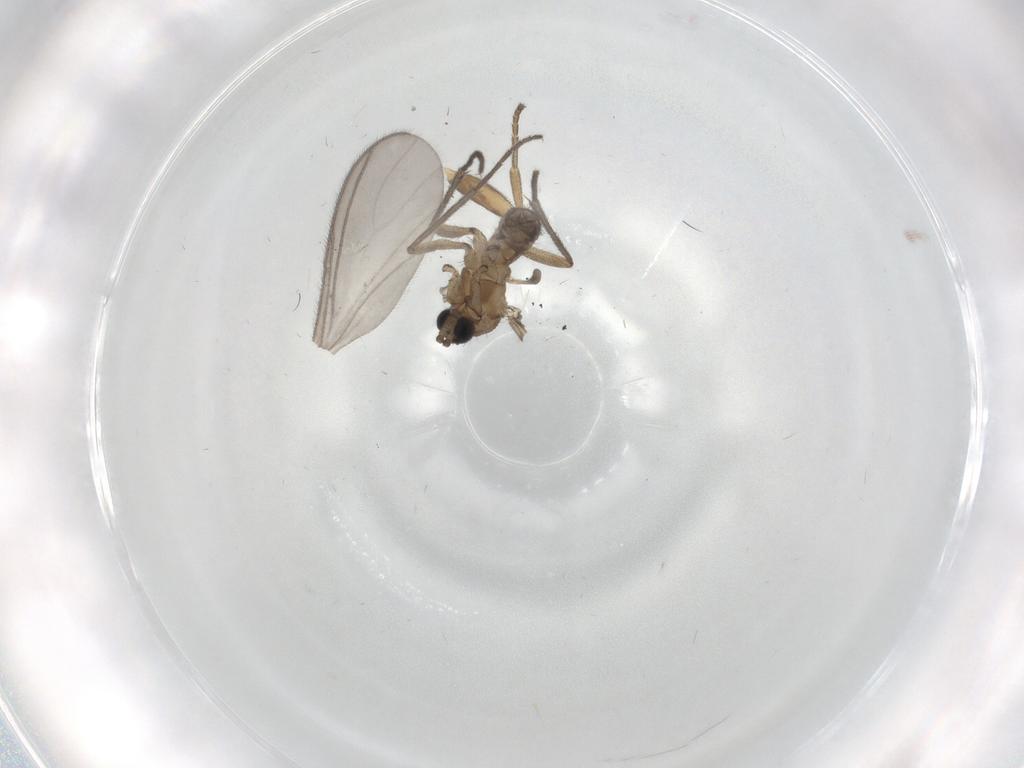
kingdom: Animalia
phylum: Arthropoda
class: Insecta
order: Diptera
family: Phoridae
